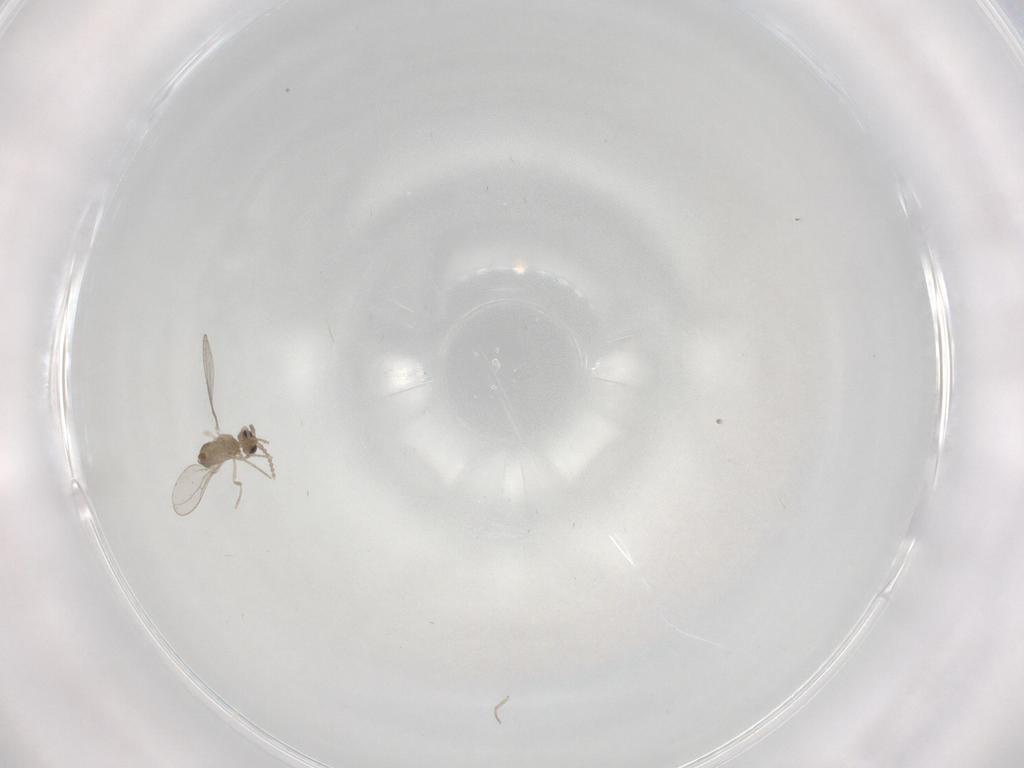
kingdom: Animalia
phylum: Arthropoda
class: Insecta
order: Diptera
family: Cecidomyiidae
